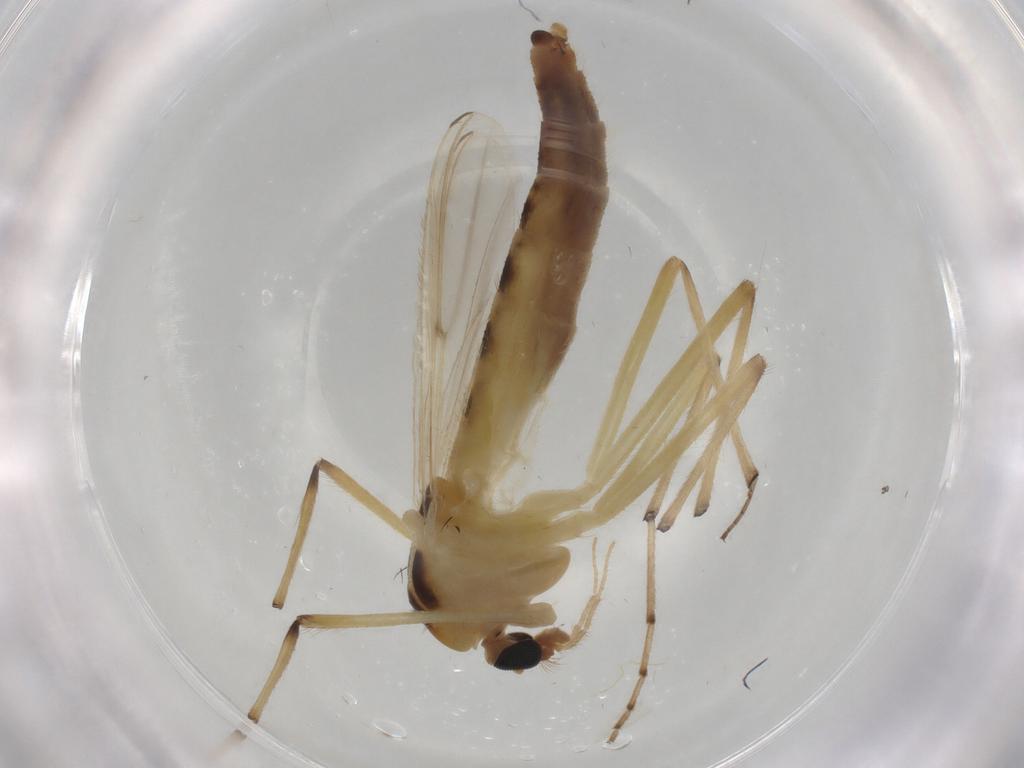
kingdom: Animalia
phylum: Arthropoda
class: Insecta
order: Diptera
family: Chironomidae
